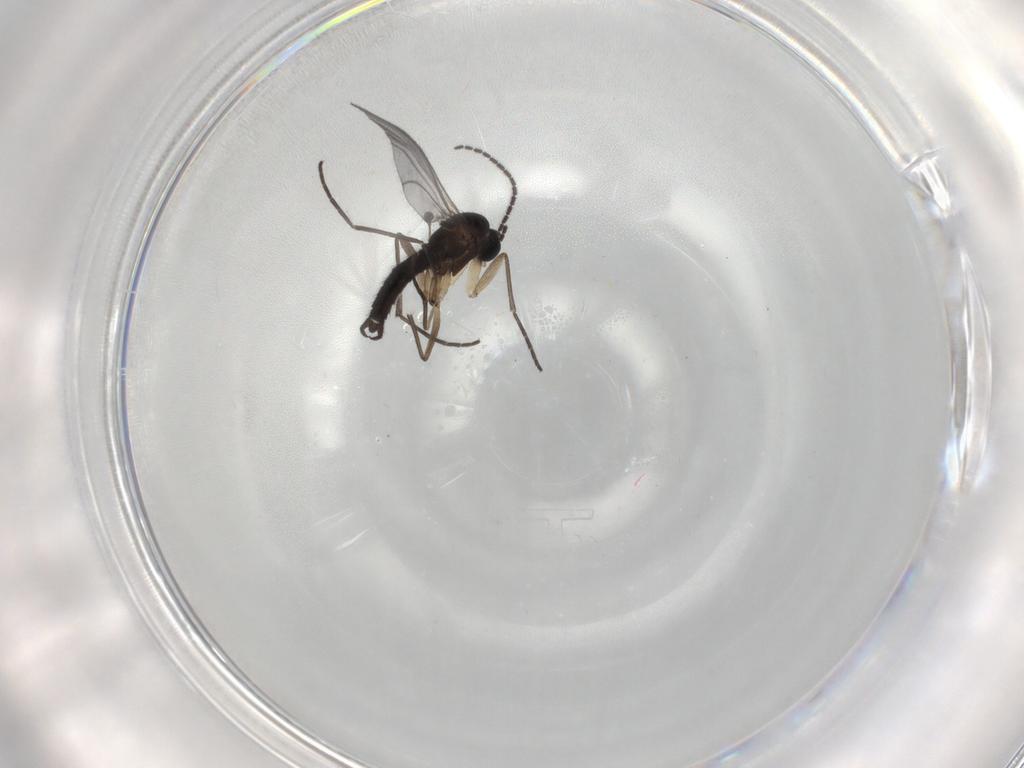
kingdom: Animalia
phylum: Arthropoda
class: Insecta
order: Diptera
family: Sciaridae
